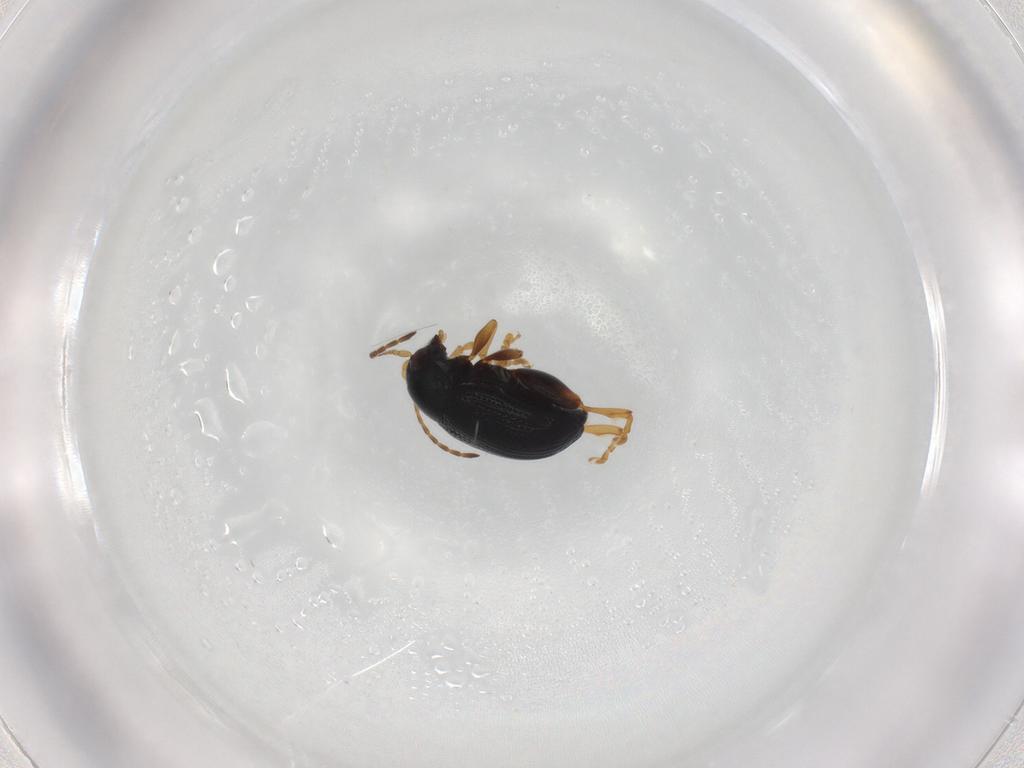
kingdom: Animalia
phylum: Arthropoda
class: Insecta
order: Coleoptera
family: Chrysomelidae
